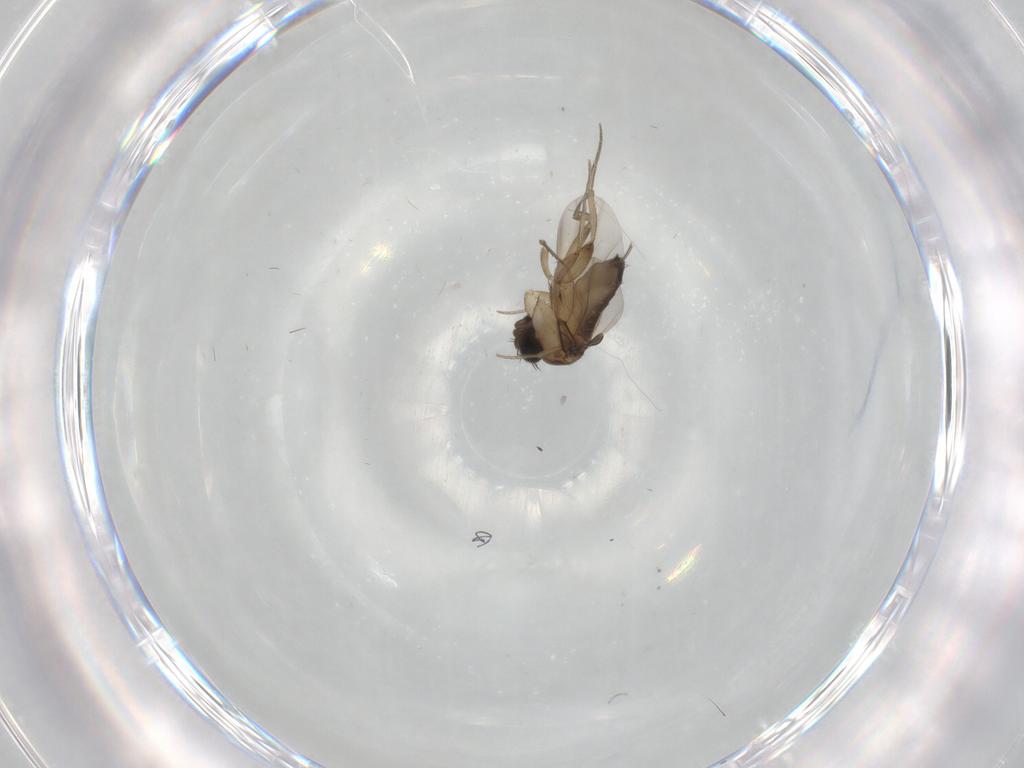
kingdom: Animalia
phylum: Arthropoda
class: Insecta
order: Diptera
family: Phoridae
